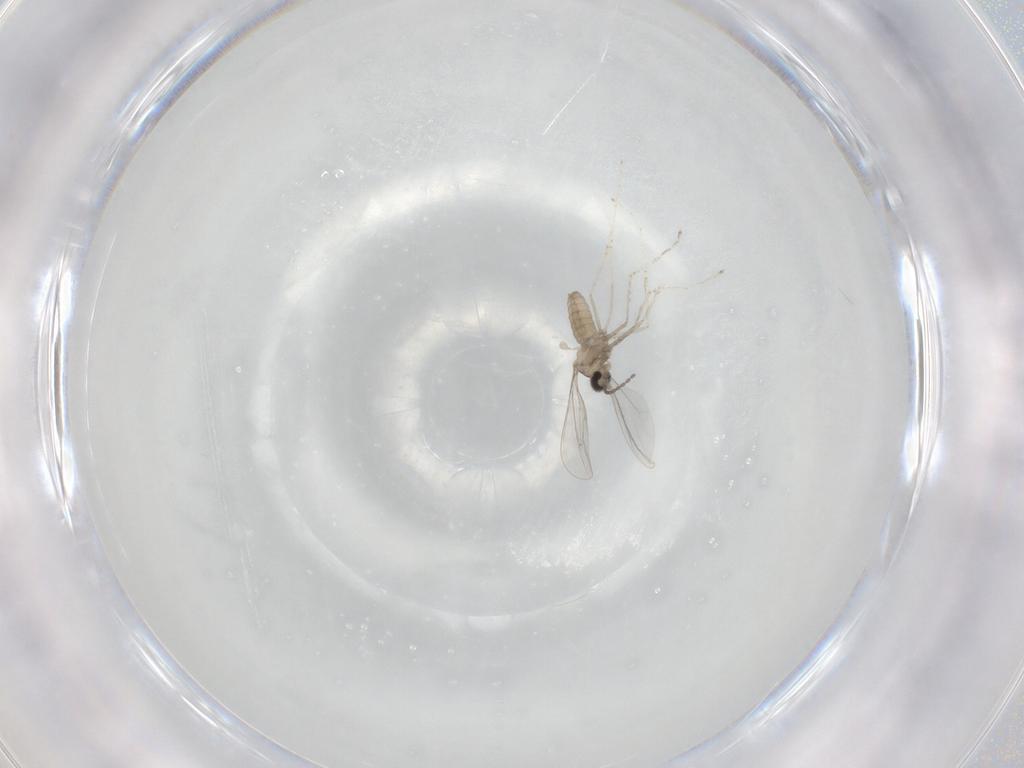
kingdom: Animalia
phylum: Arthropoda
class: Insecta
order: Diptera
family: Cecidomyiidae
